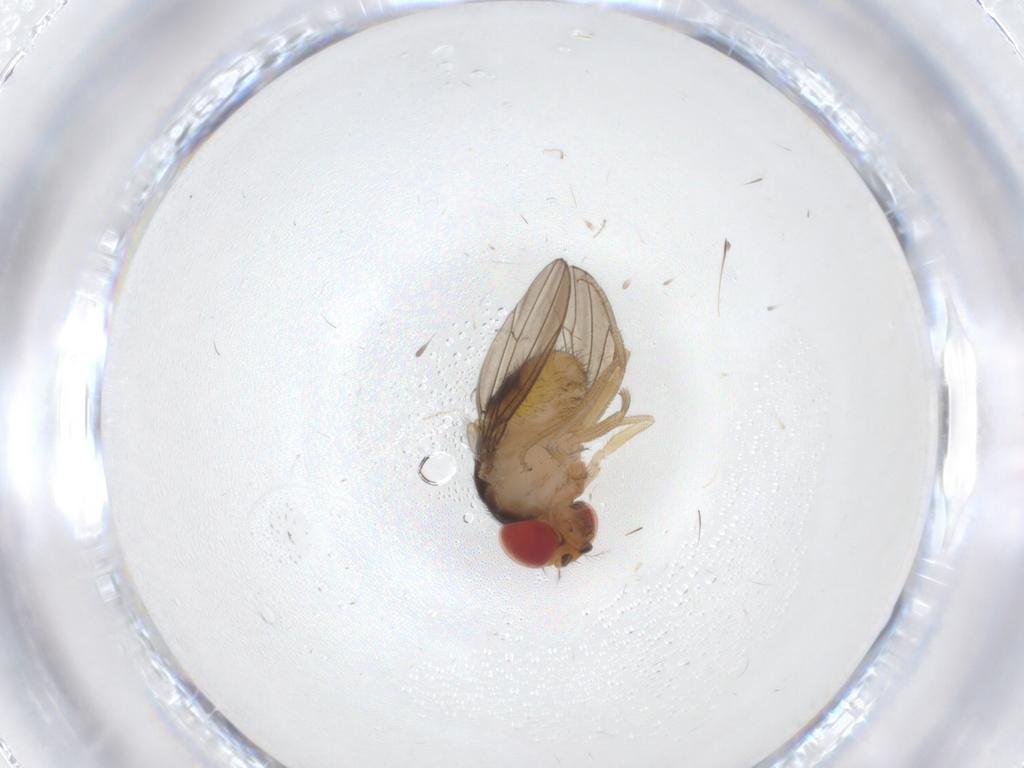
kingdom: Animalia
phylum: Arthropoda
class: Insecta
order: Diptera
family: Drosophilidae
